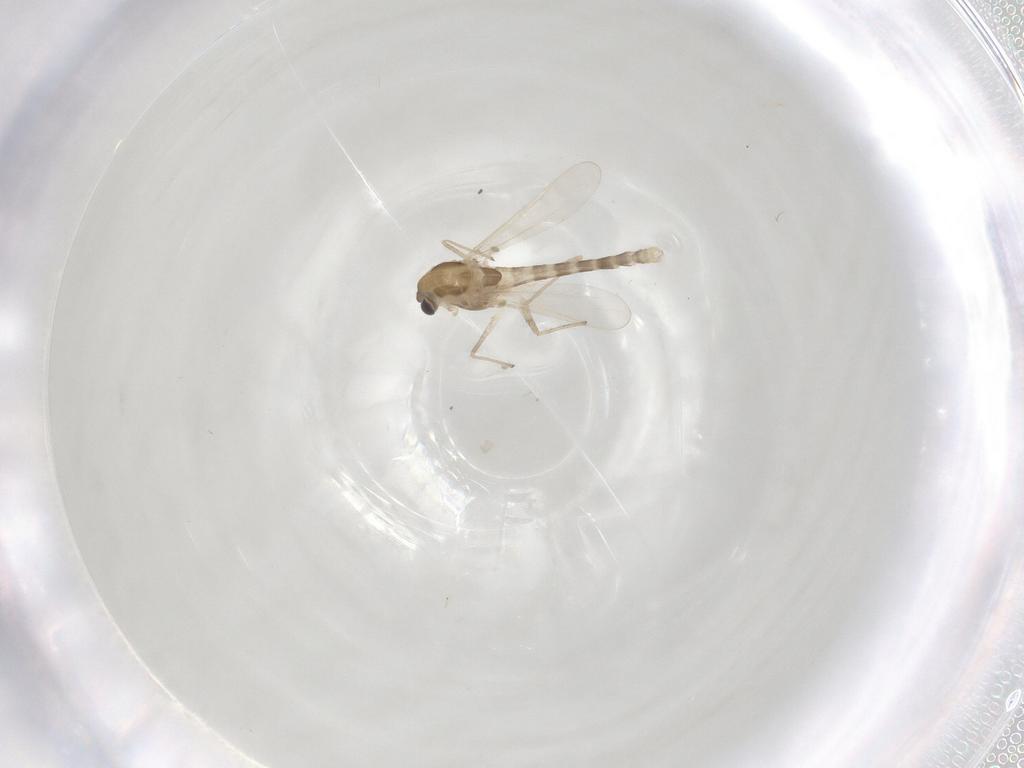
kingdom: Animalia
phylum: Arthropoda
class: Insecta
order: Diptera
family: Chironomidae
